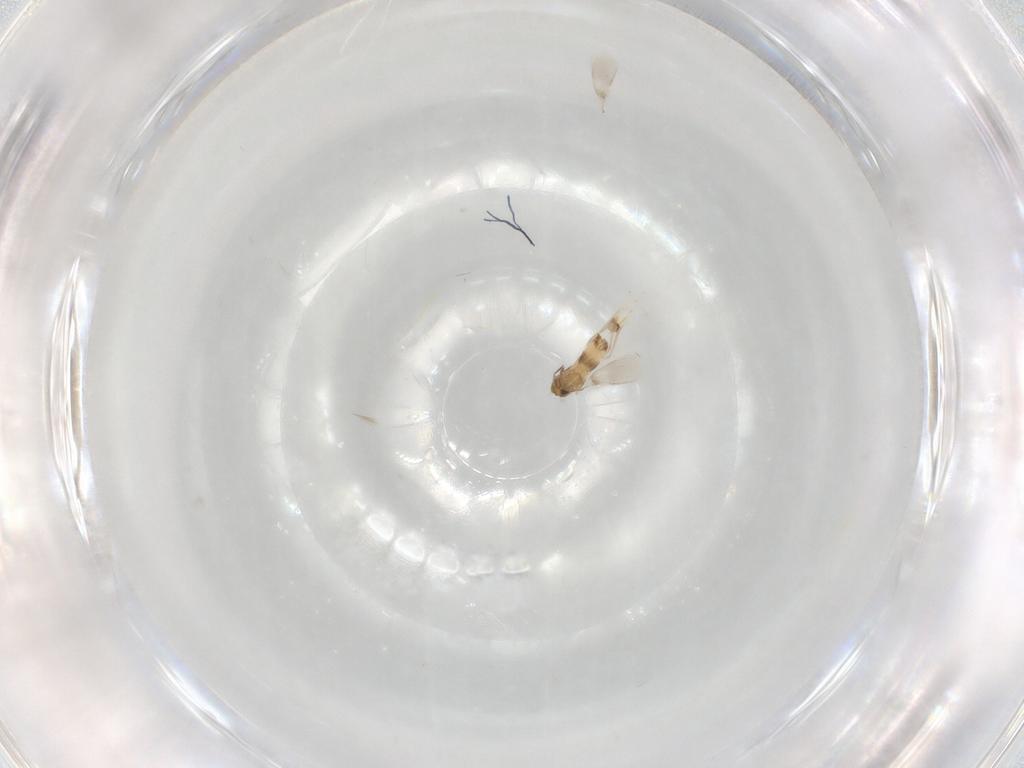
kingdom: Animalia
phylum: Arthropoda
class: Insecta
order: Hymenoptera
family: Aphelinidae
